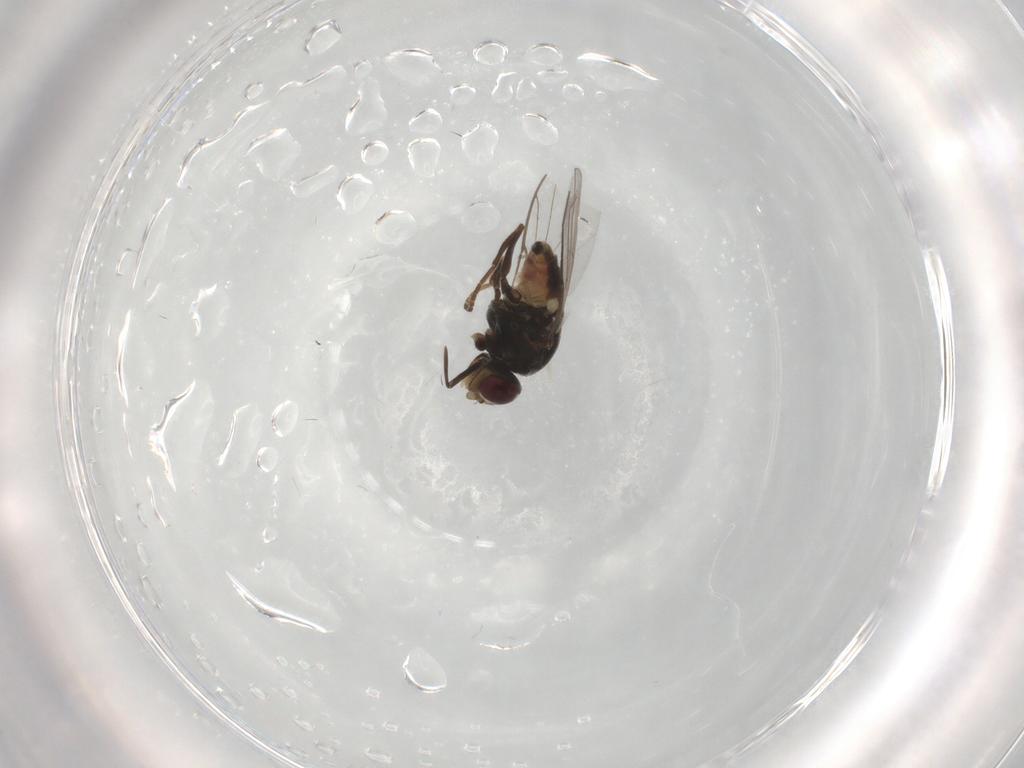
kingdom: Animalia
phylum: Arthropoda
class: Insecta
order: Diptera
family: Chloropidae
